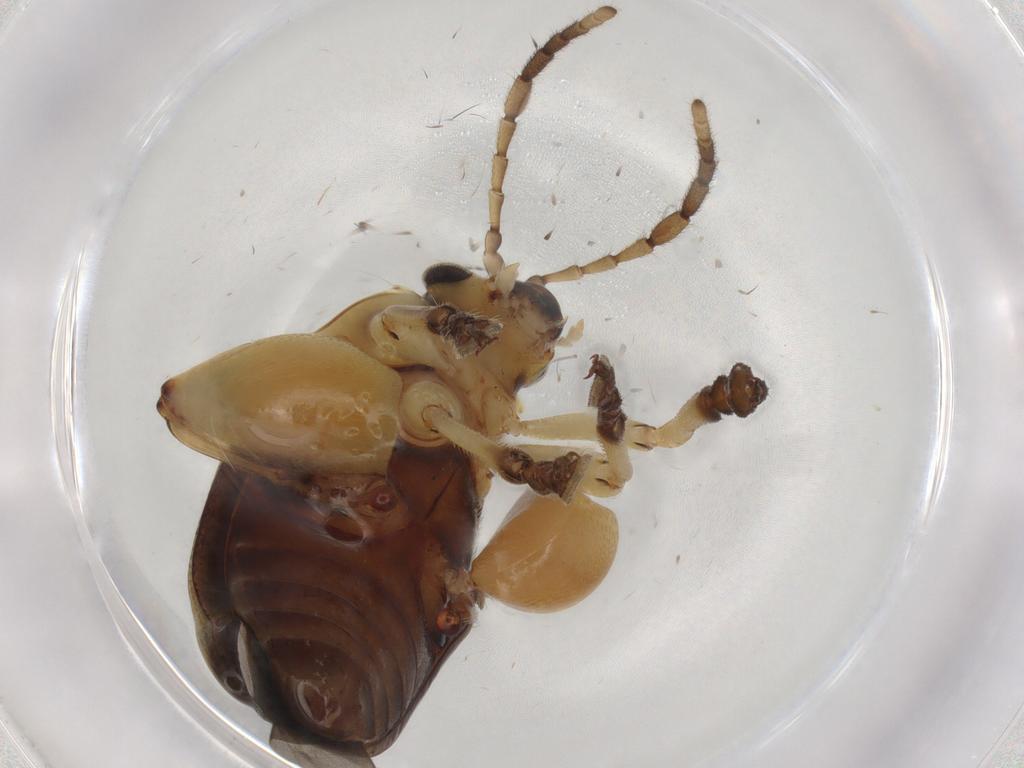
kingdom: Animalia
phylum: Arthropoda
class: Insecta
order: Coleoptera
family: Chrysomelidae
